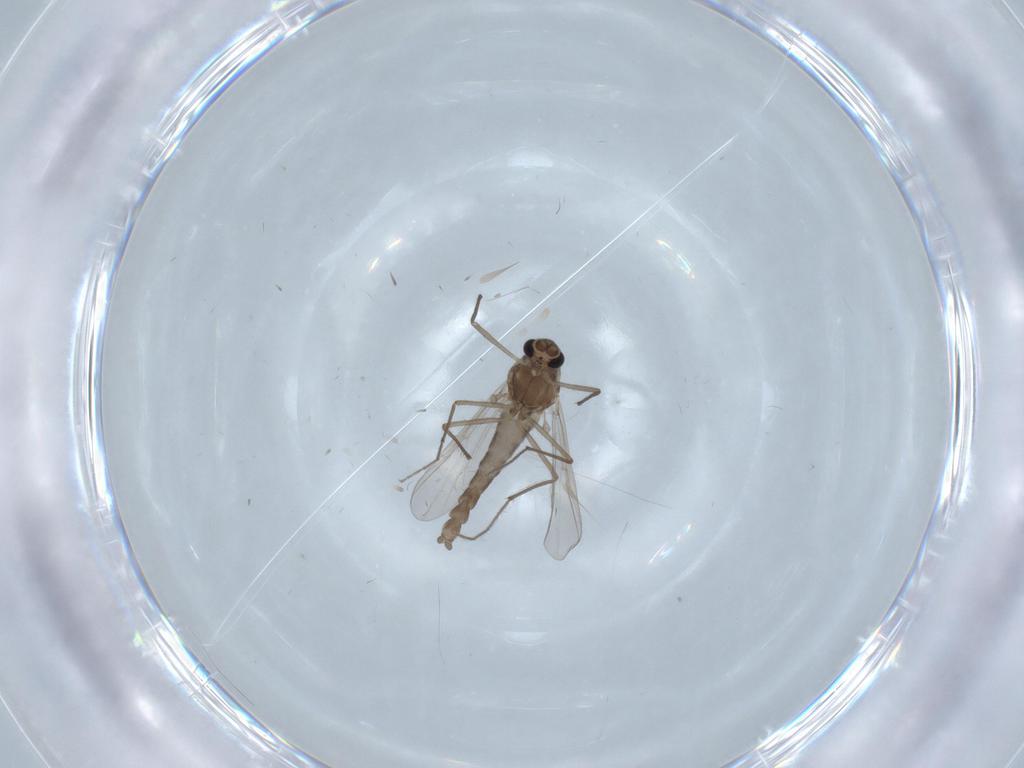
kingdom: Animalia
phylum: Arthropoda
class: Insecta
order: Diptera
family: Chironomidae
